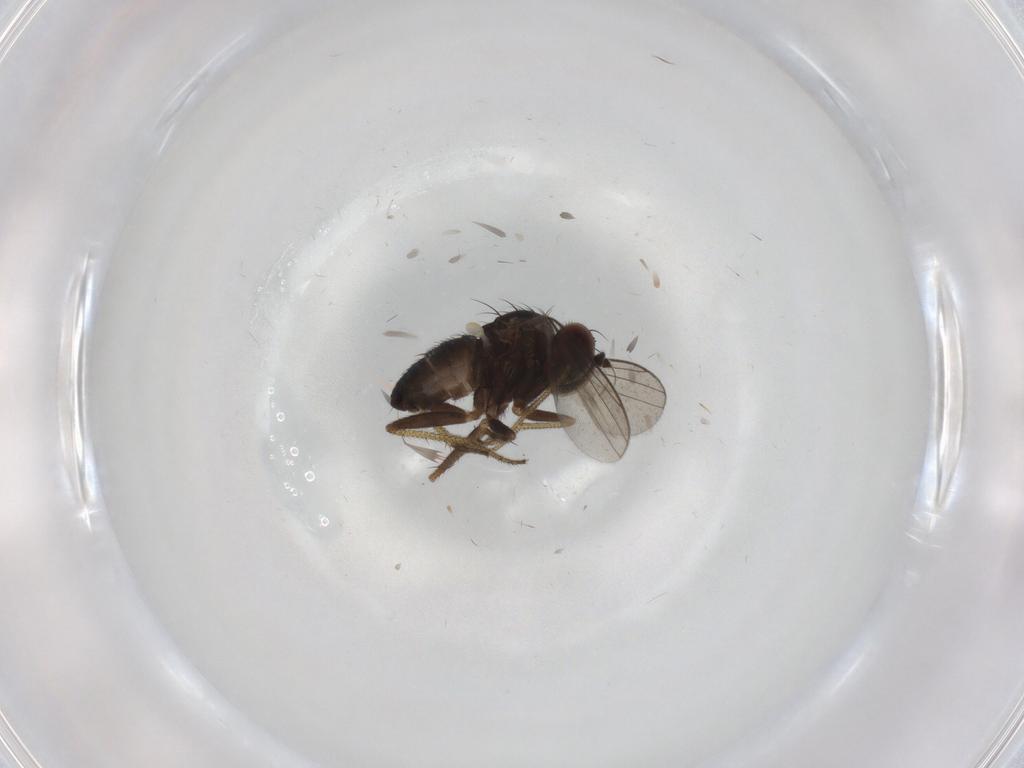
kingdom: Animalia
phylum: Arthropoda
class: Insecta
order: Diptera
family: Dolichopodidae
